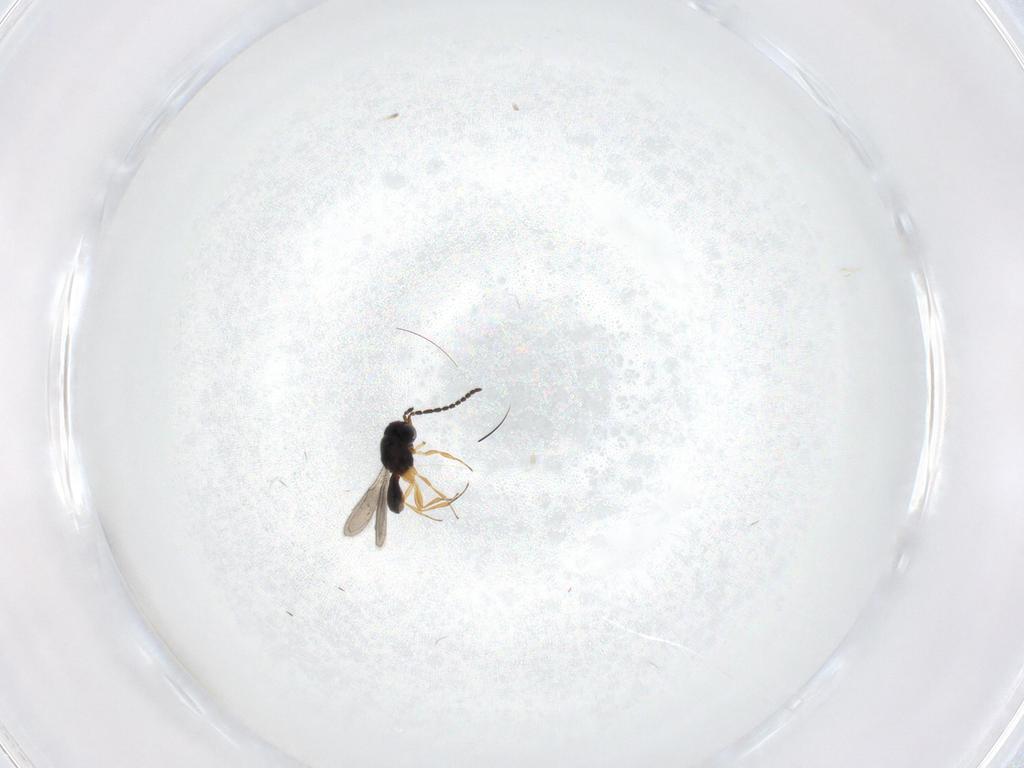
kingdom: Animalia
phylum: Arthropoda
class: Insecta
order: Hymenoptera
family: Scelionidae
